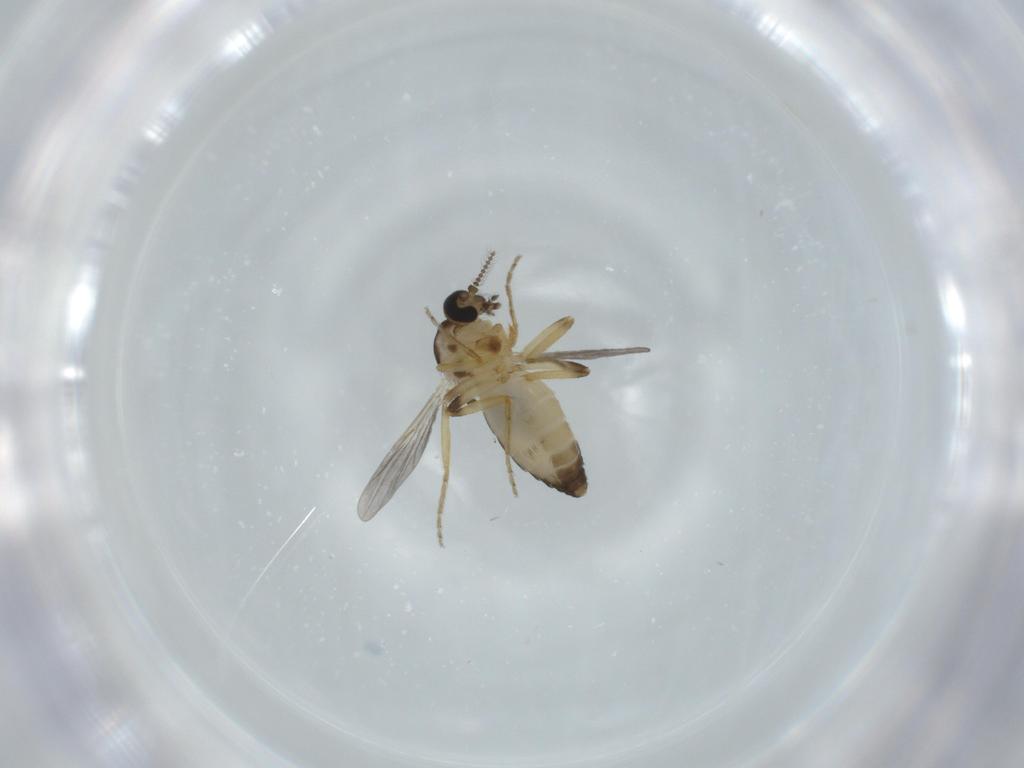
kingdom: Animalia
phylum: Arthropoda
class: Insecta
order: Diptera
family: Ceratopogonidae
